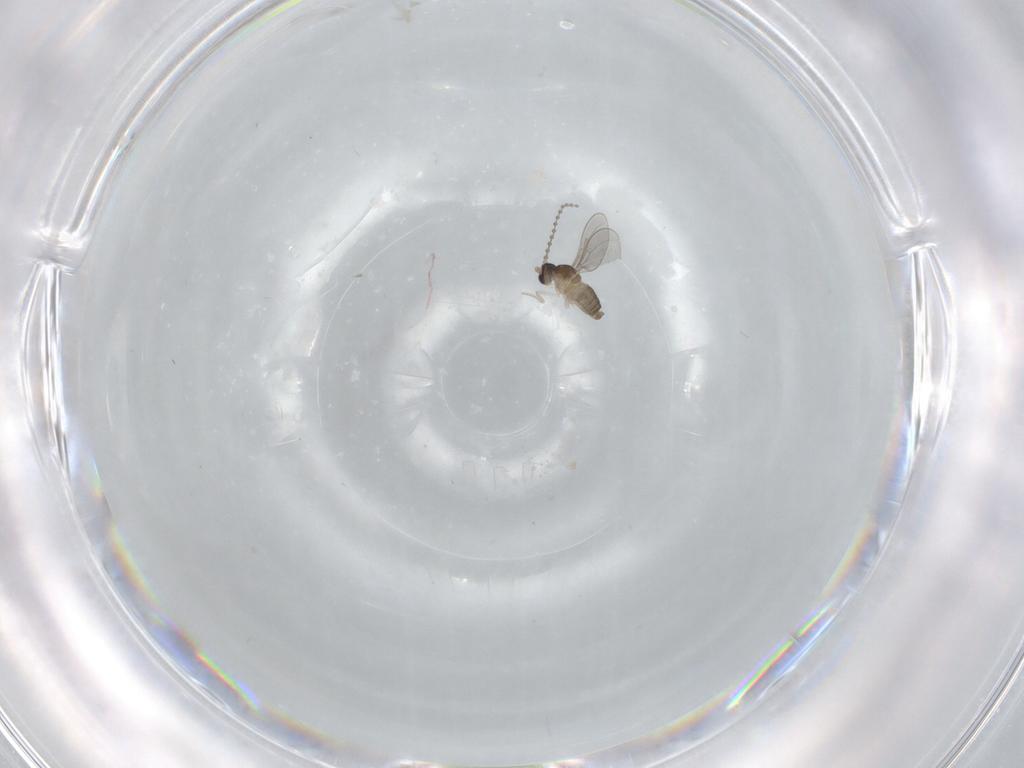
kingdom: Animalia
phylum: Arthropoda
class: Insecta
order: Diptera
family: Cecidomyiidae
